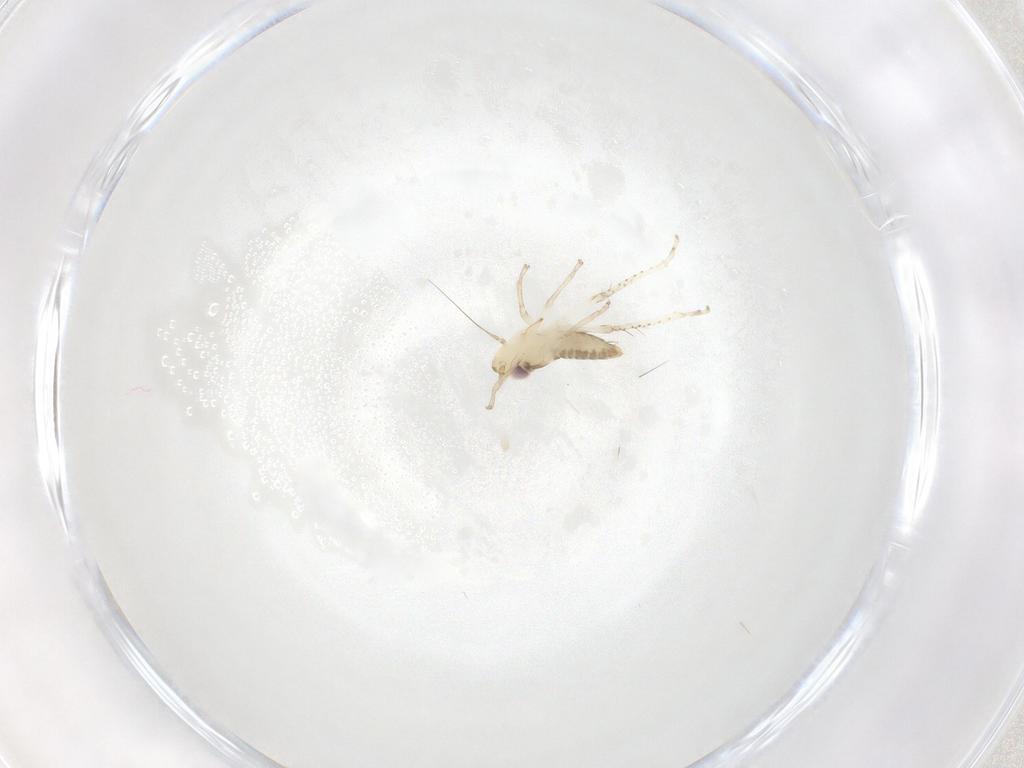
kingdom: Animalia
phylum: Arthropoda
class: Insecta
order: Hemiptera
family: Cicadellidae
